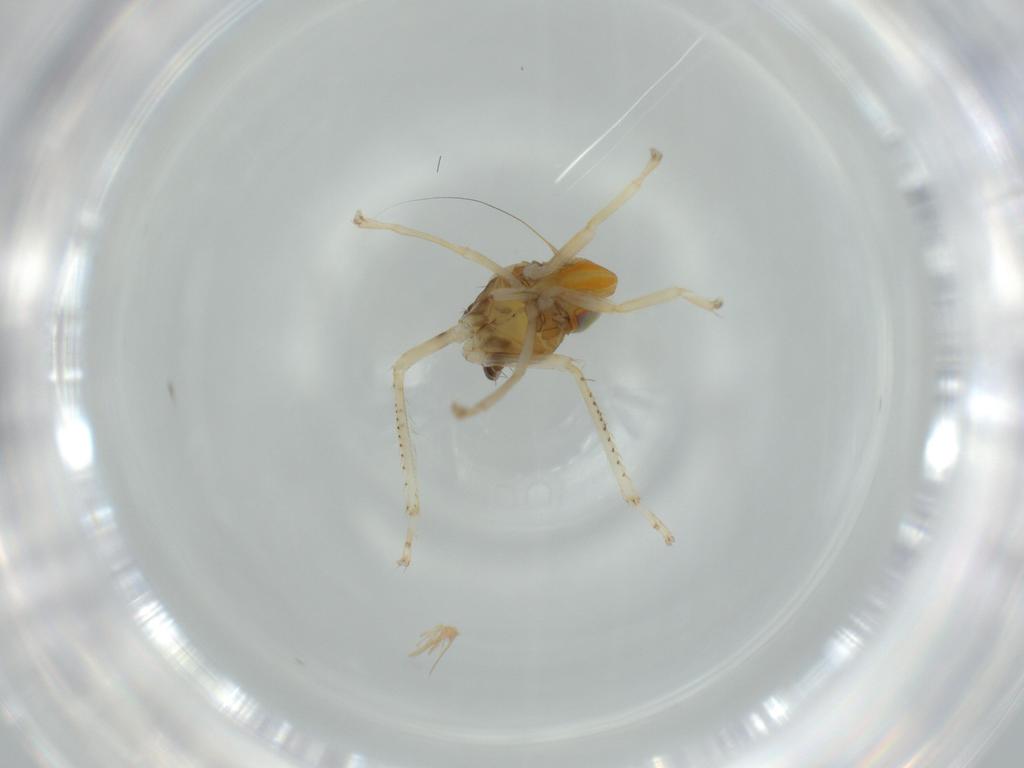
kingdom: Animalia
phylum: Arthropoda
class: Insecta
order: Hemiptera
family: Cicadellidae
